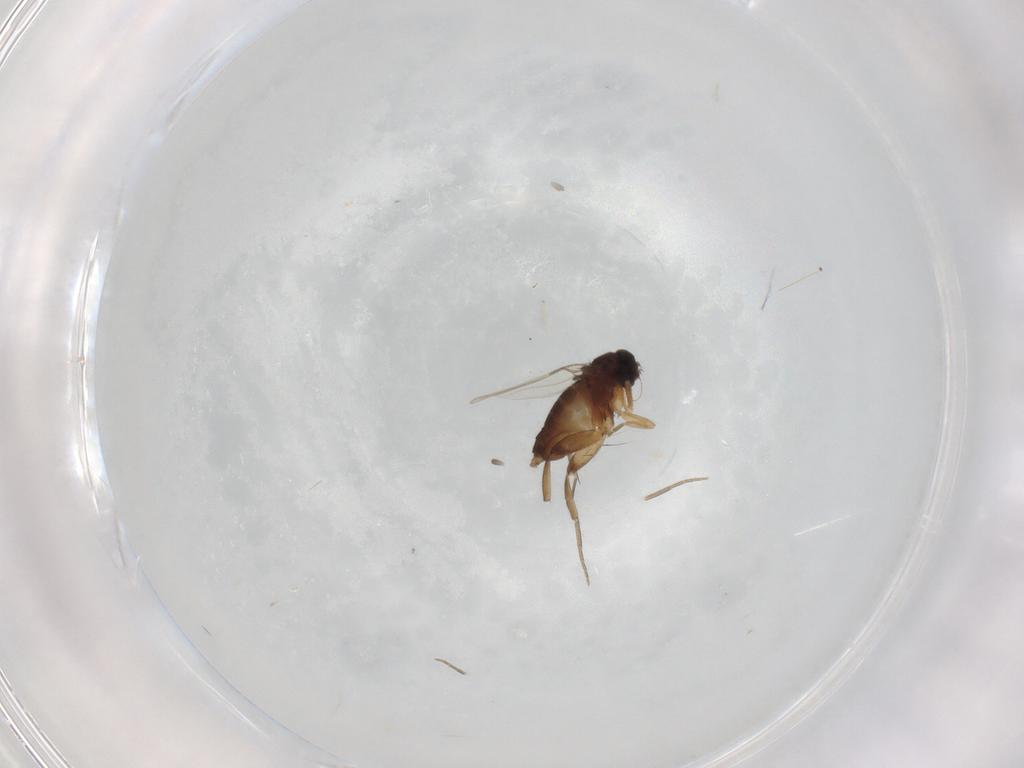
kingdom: Animalia
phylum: Arthropoda
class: Insecta
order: Diptera
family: Phoridae
